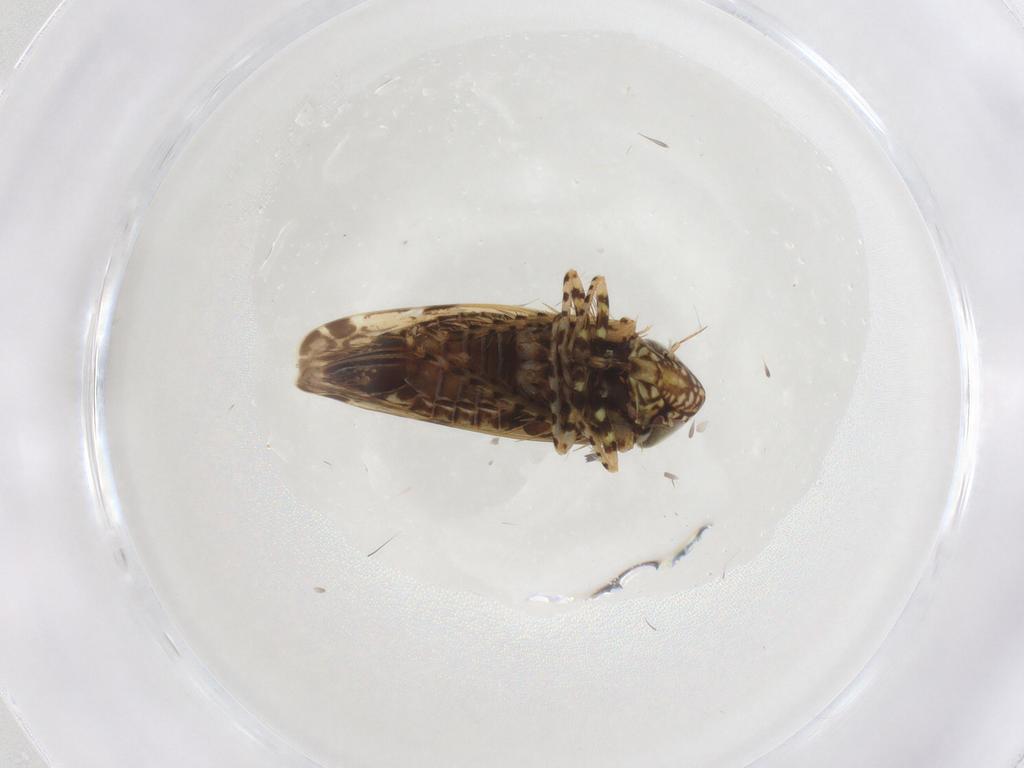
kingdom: Animalia
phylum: Arthropoda
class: Insecta
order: Hemiptera
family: Cicadellidae
